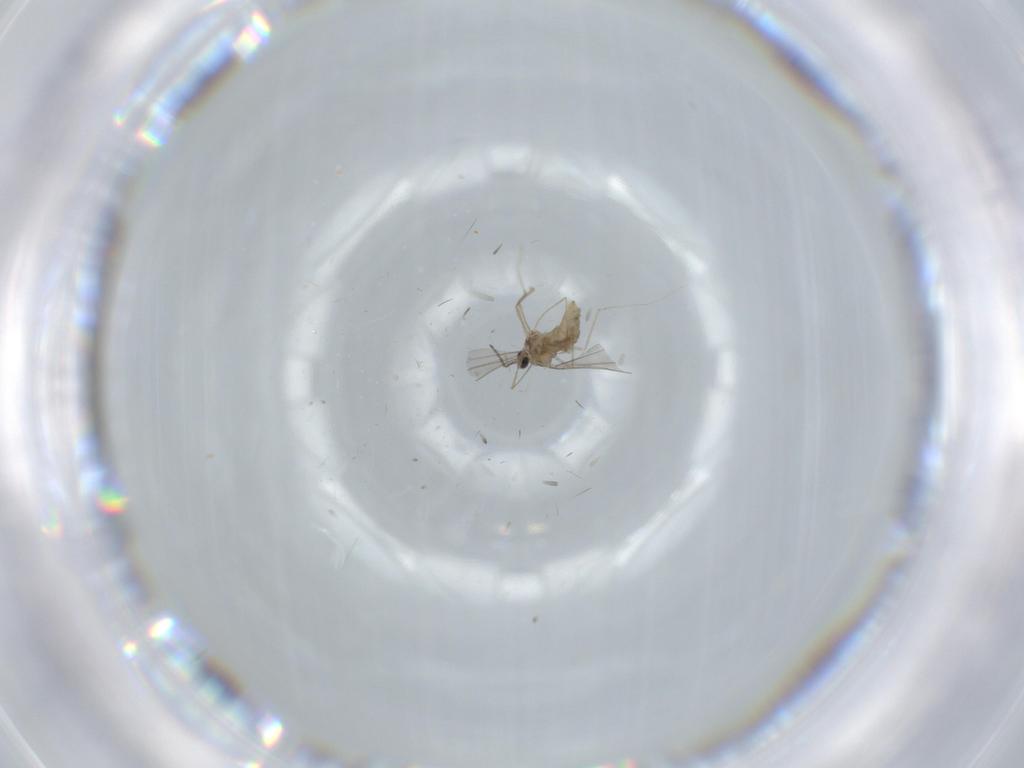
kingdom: Animalia
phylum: Arthropoda
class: Insecta
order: Diptera
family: Cecidomyiidae
